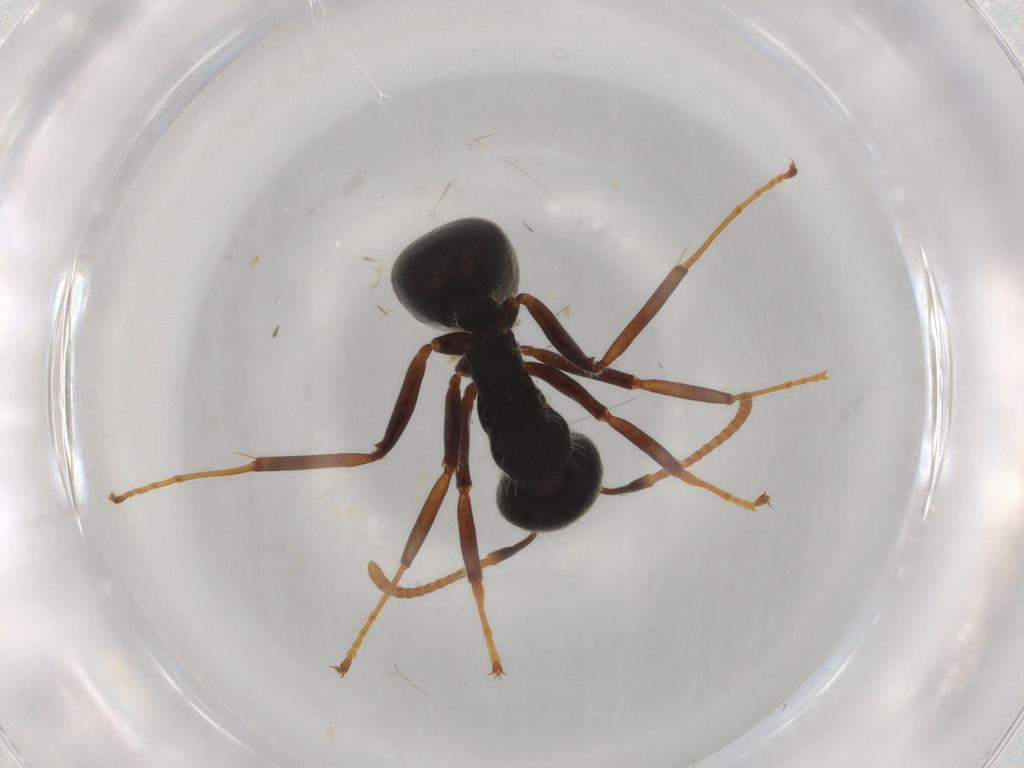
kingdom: Animalia
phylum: Arthropoda
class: Insecta
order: Hymenoptera
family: Formicidae
